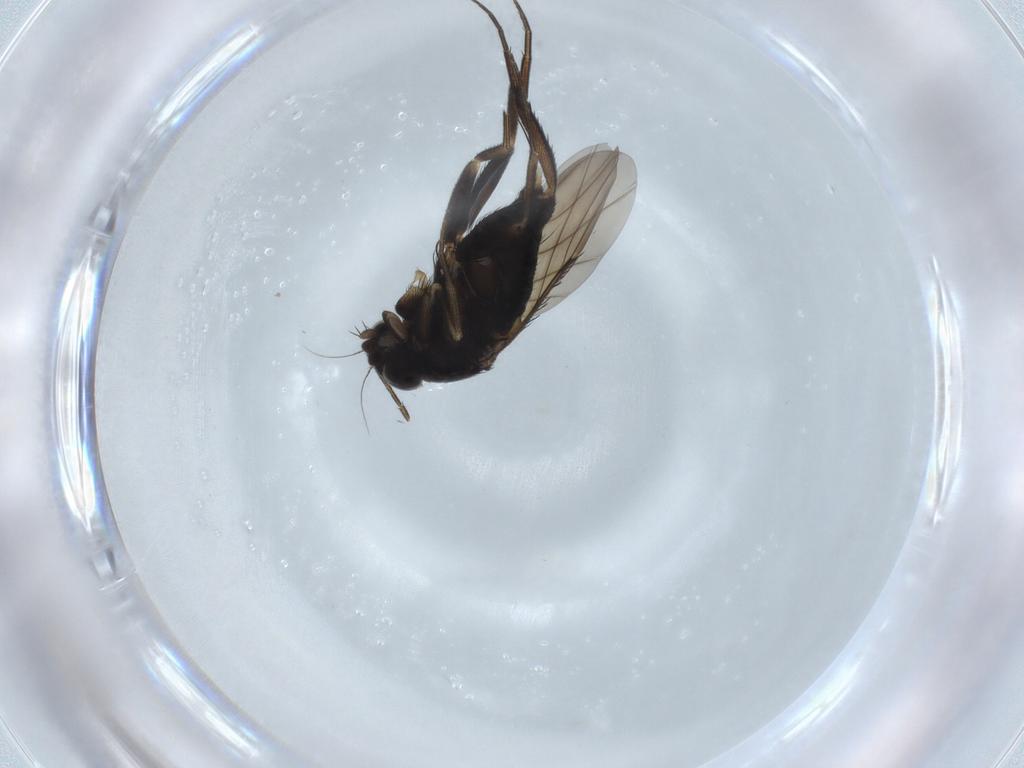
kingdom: Animalia
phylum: Arthropoda
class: Insecta
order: Diptera
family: Phoridae
